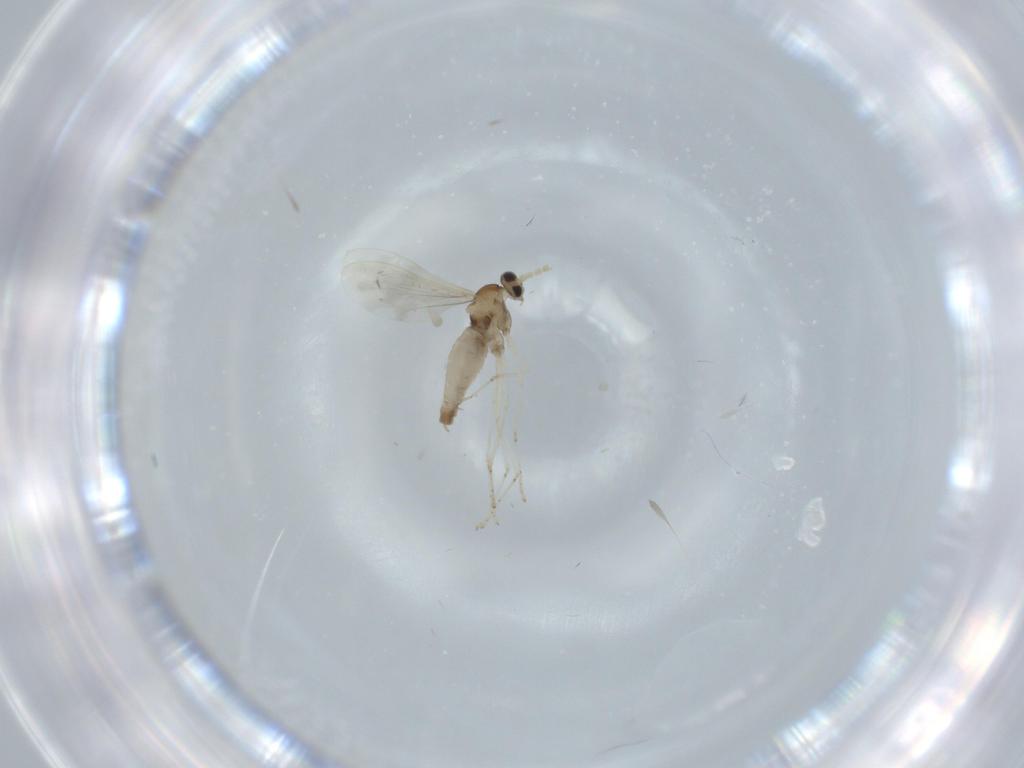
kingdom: Animalia
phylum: Arthropoda
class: Insecta
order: Diptera
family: Cecidomyiidae
